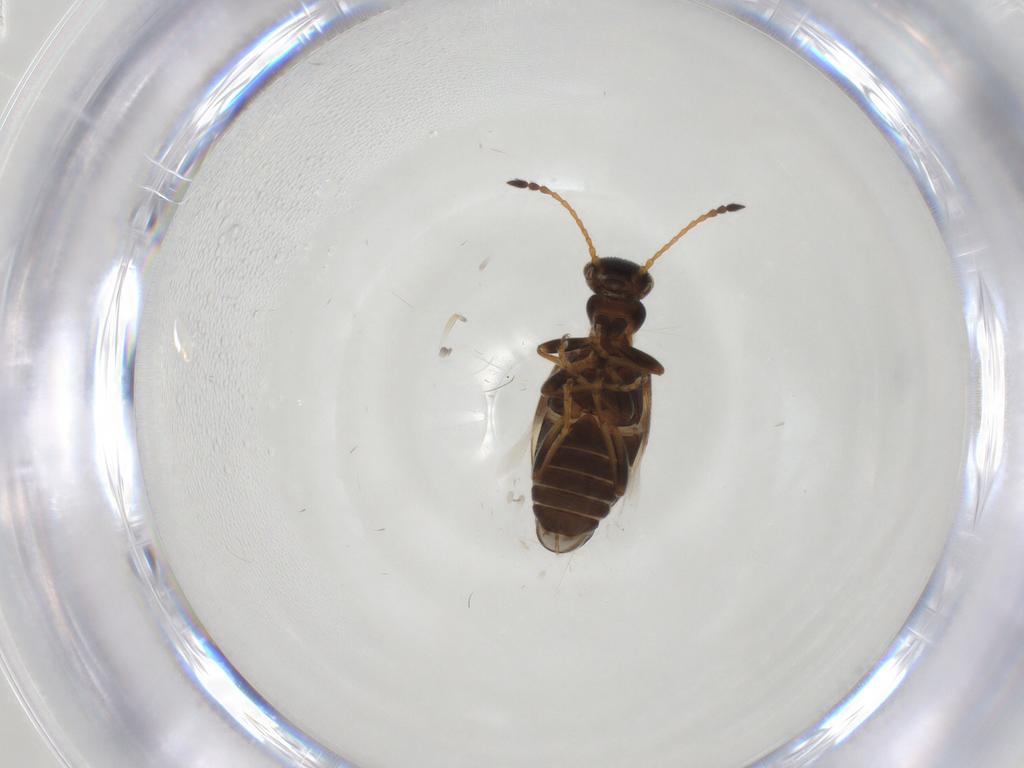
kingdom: Animalia
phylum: Arthropoda
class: Insecta
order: Coleoptera
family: Anthicidae
